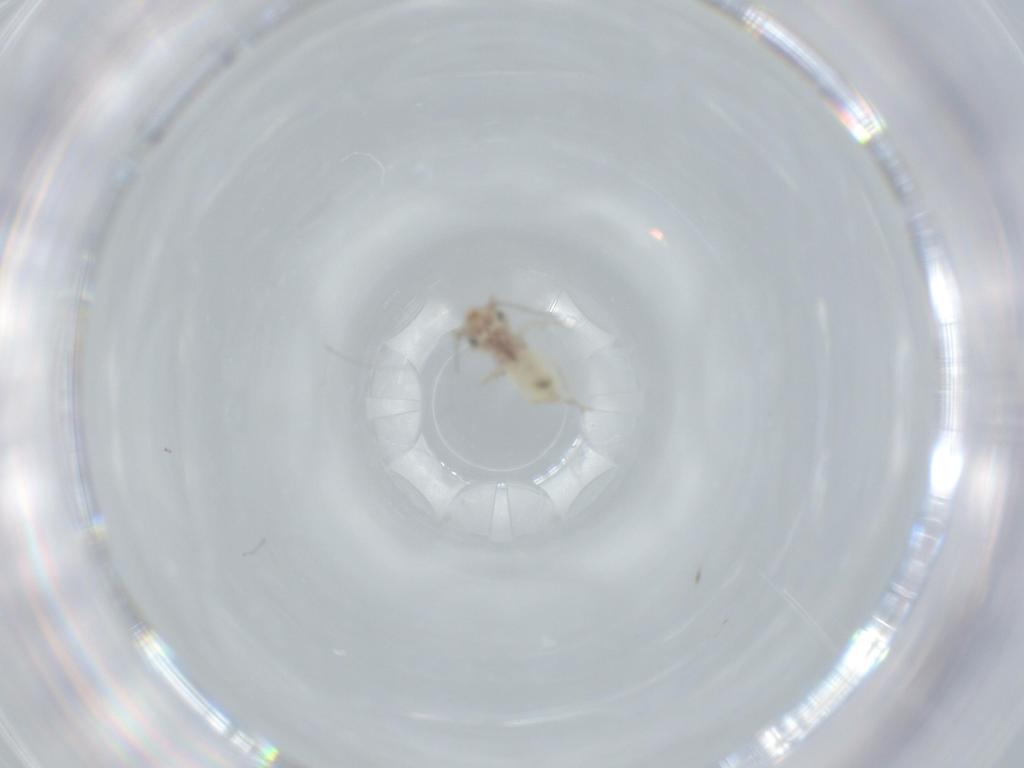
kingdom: Animalia
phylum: Arthropoda
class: Insecta
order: Psocodea
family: Lepidopsocidae
